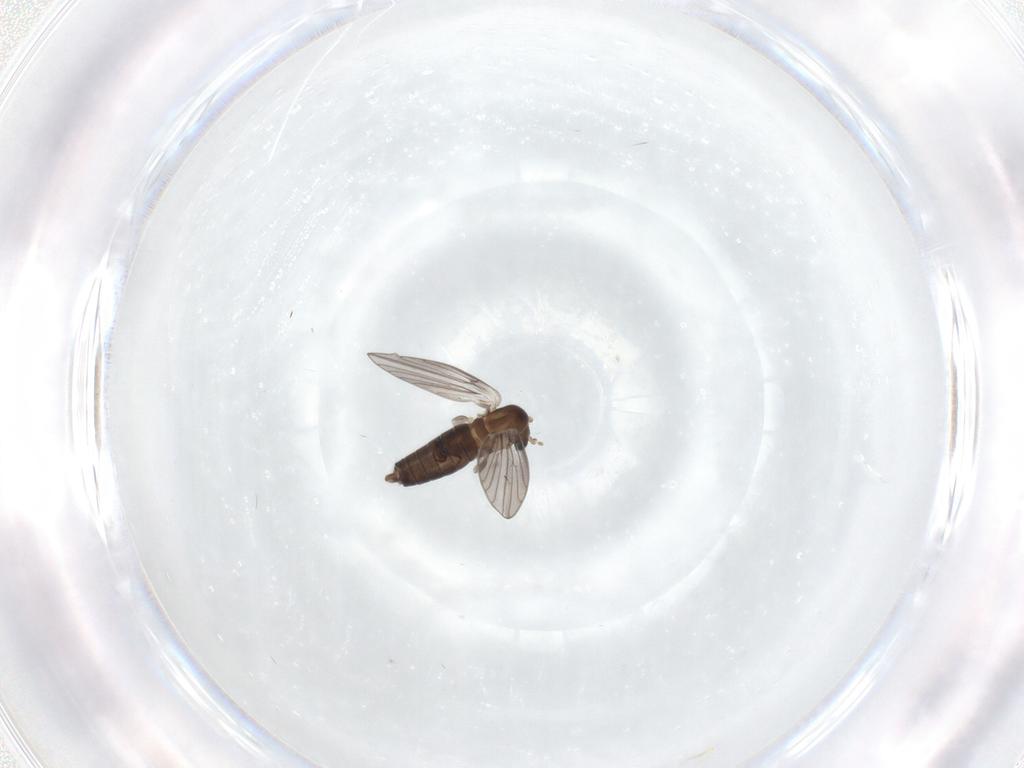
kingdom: Animalia
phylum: Arthropoda
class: Insecta
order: Diptera
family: Psychodidae
